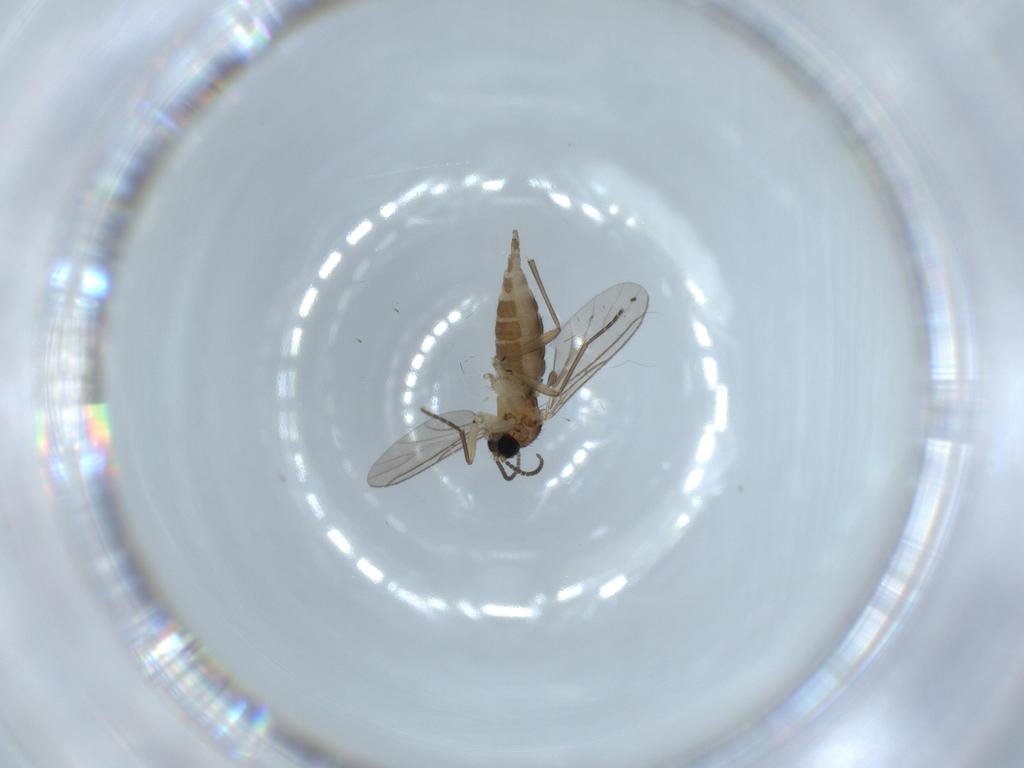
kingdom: Animalia
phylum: Arthropoda
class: Insecta
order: Diptera
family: Sciaridae
